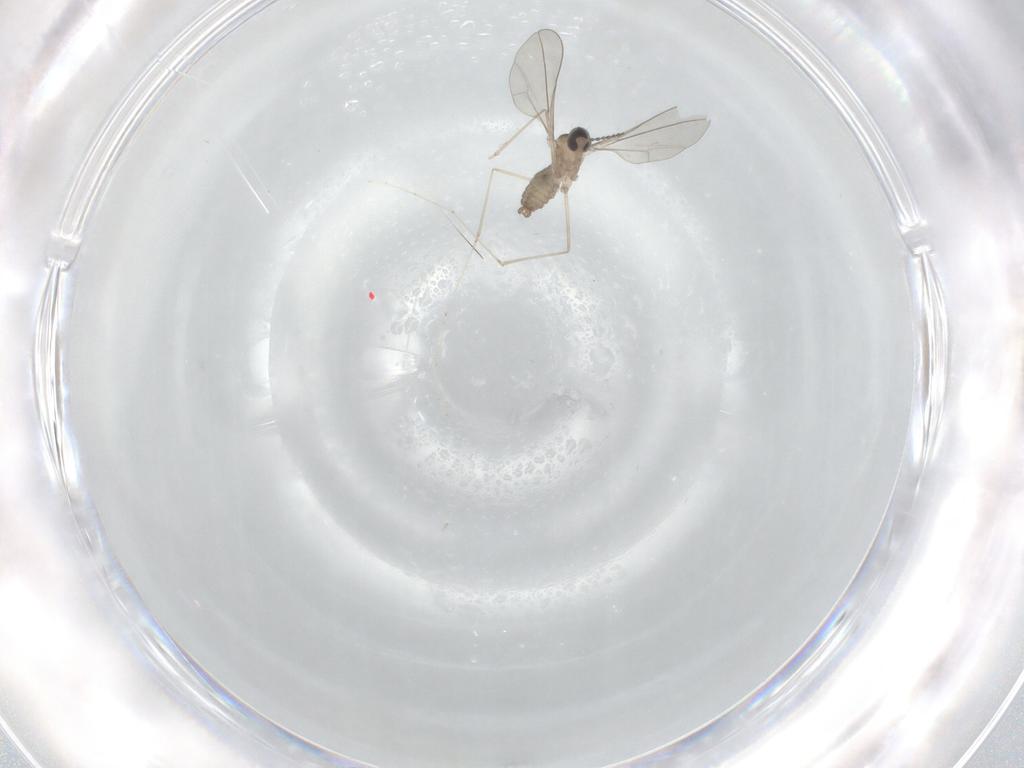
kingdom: Animalia
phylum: Arthropoda
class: Insecta
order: Diptera
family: Cecidomyiidae
